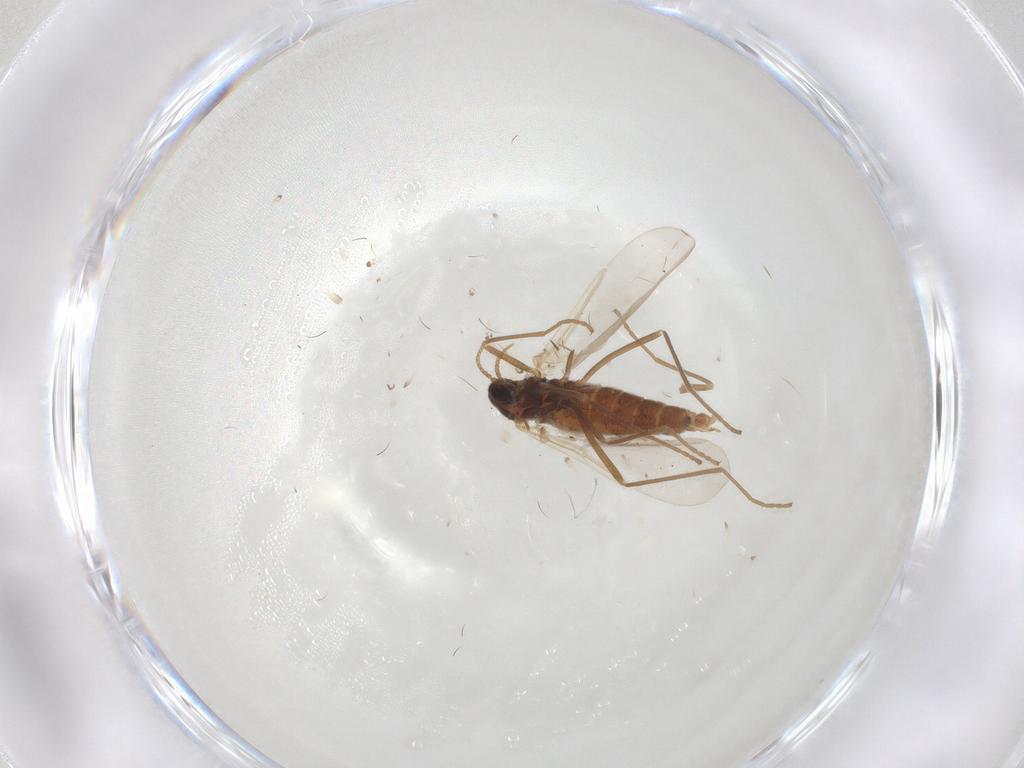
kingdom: Animalia
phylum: Arthropoda
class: Insecta
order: Diptera
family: Cecidomyiidae
